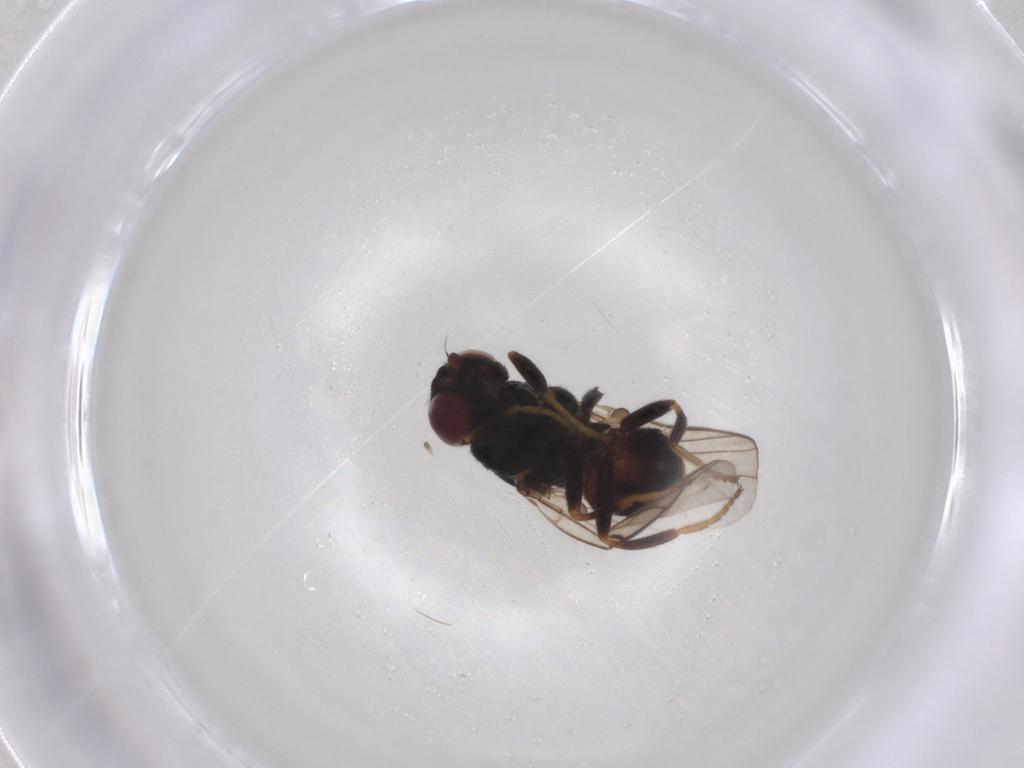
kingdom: Animalia
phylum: Arthropoda
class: Insecta
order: Diptera
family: Chloropidae
